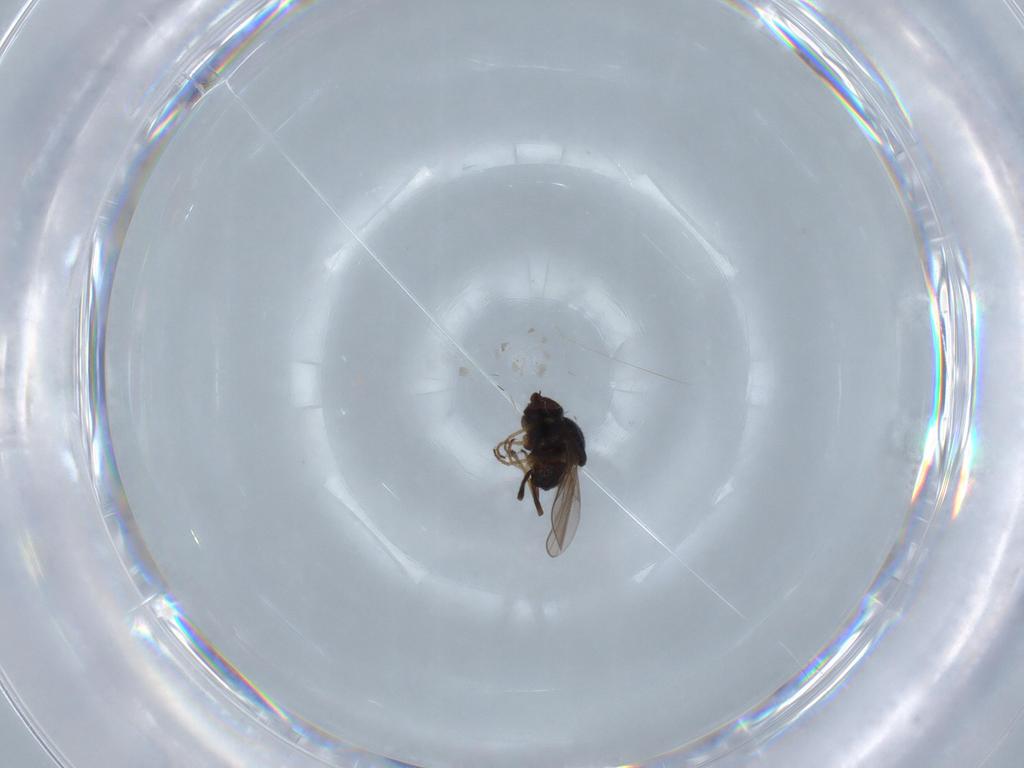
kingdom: Animalia
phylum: Arthropoda
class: Insecta
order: Diptera
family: Chloropidae
